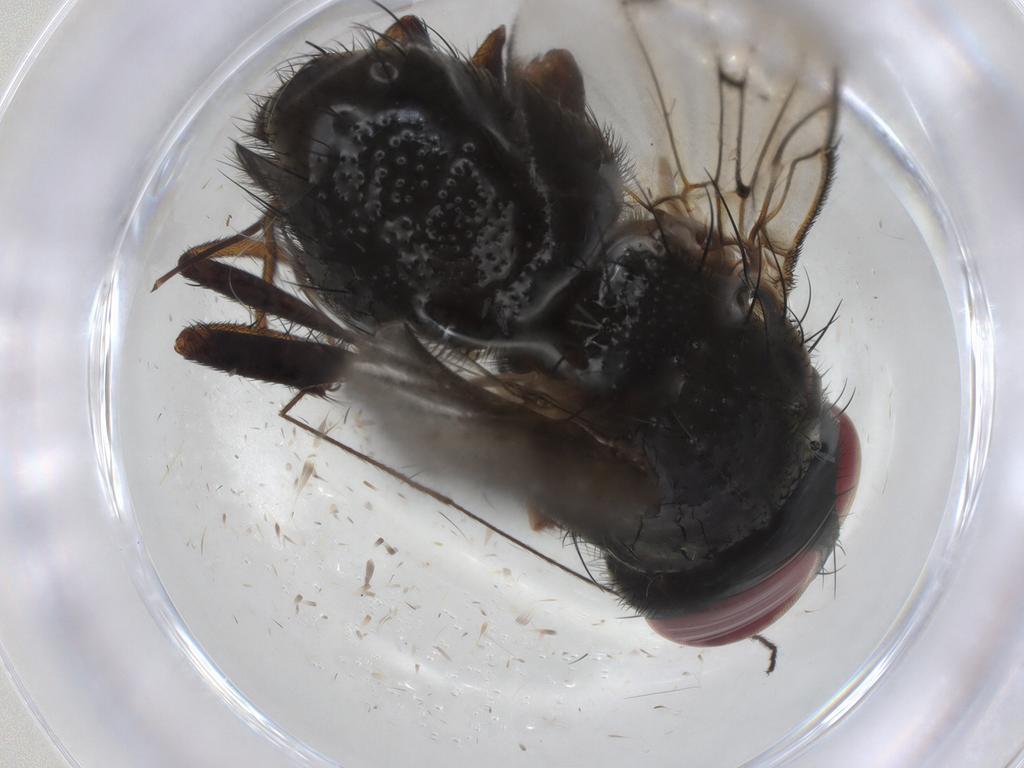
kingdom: Animalia
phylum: Arthropoda
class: Insecta
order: Diptera
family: Tachinidae
